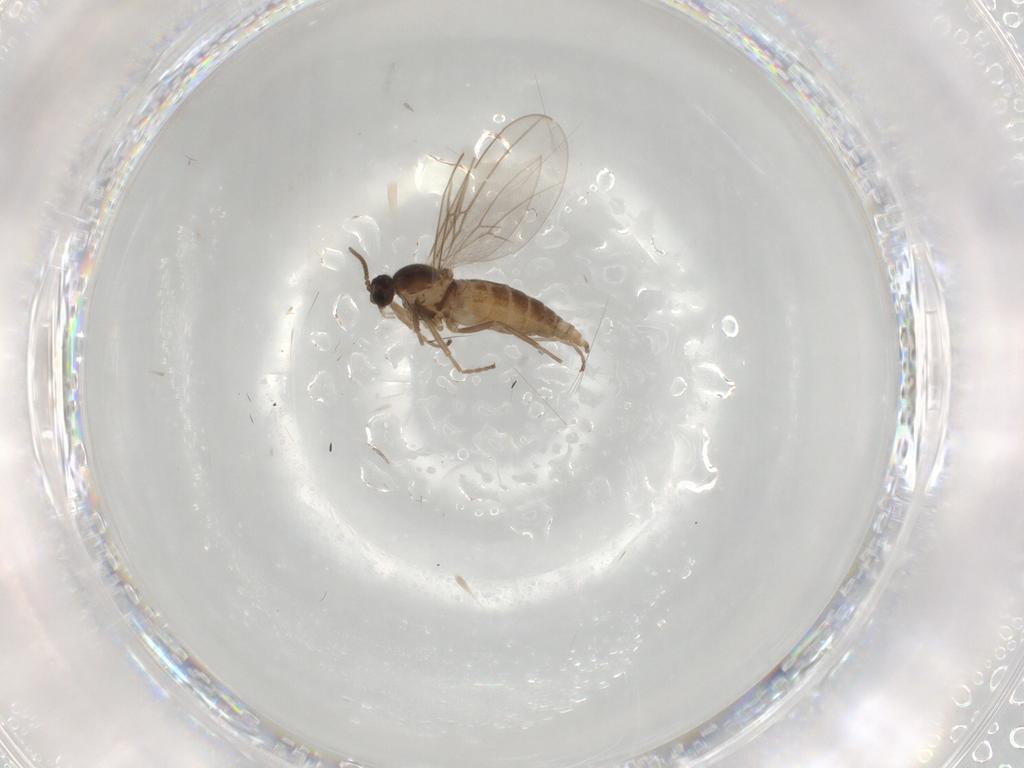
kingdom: Animalia
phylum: Arthropoda
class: Insecta
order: Diptera
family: Cecidomyiidae
